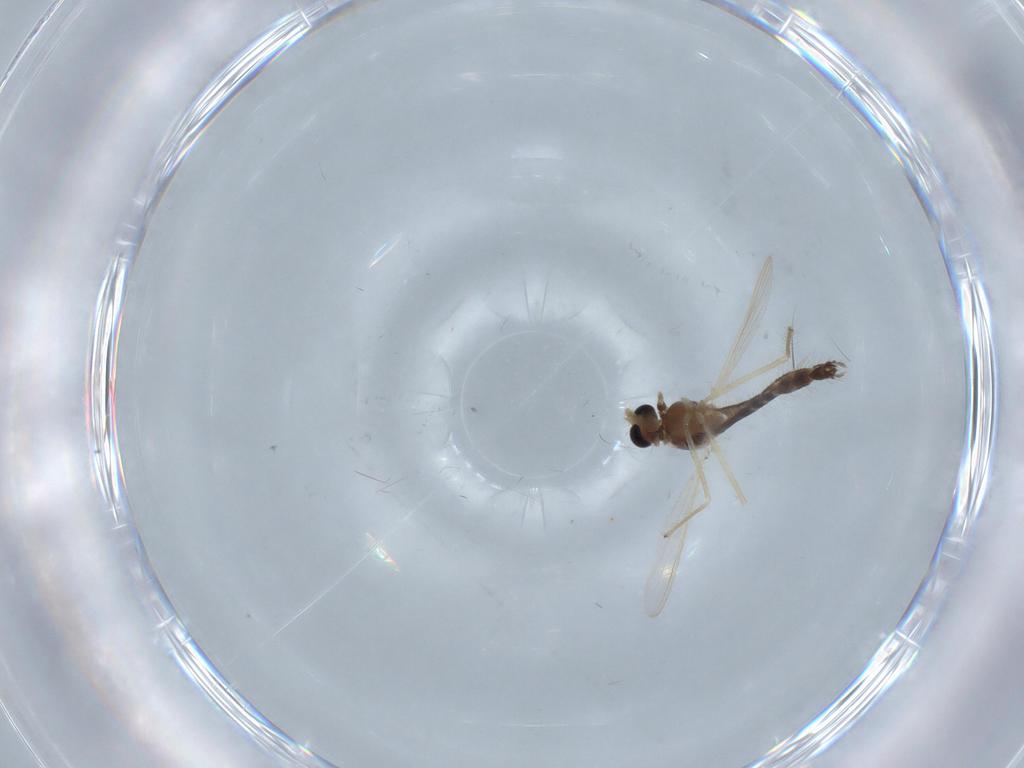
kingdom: Animalia
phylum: Arthropoda
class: Insecta
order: Diptera
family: Chironomidae
